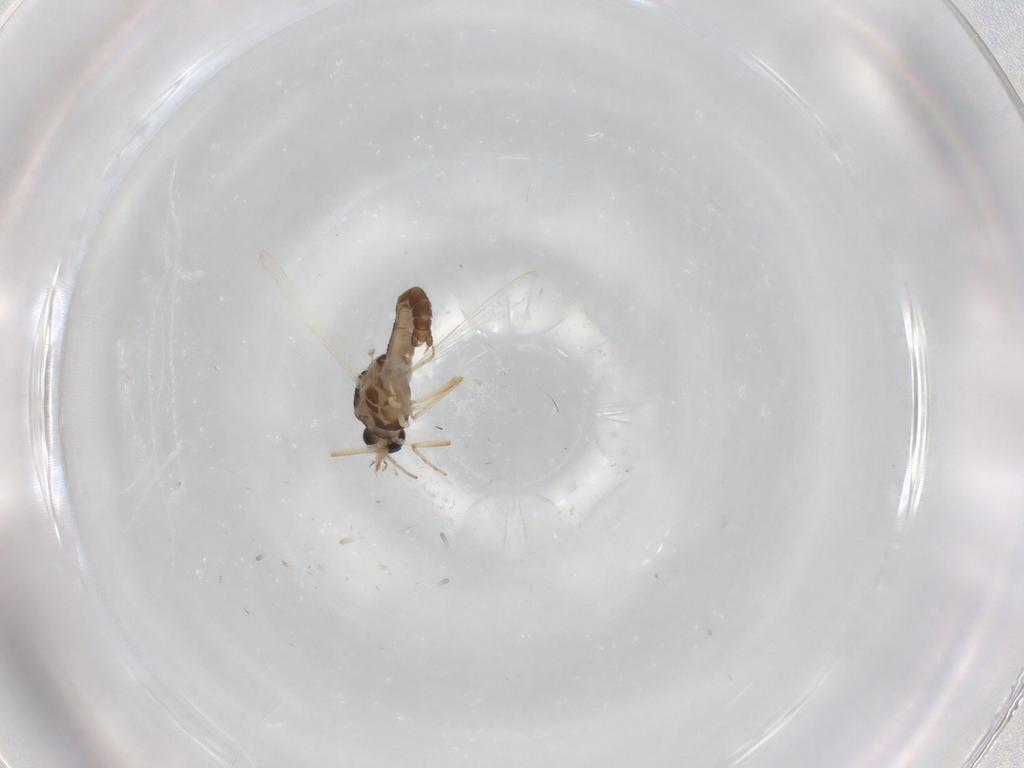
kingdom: Animalia
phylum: Arthropoda
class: Insecta
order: Diptera
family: Ceratopogonidae
